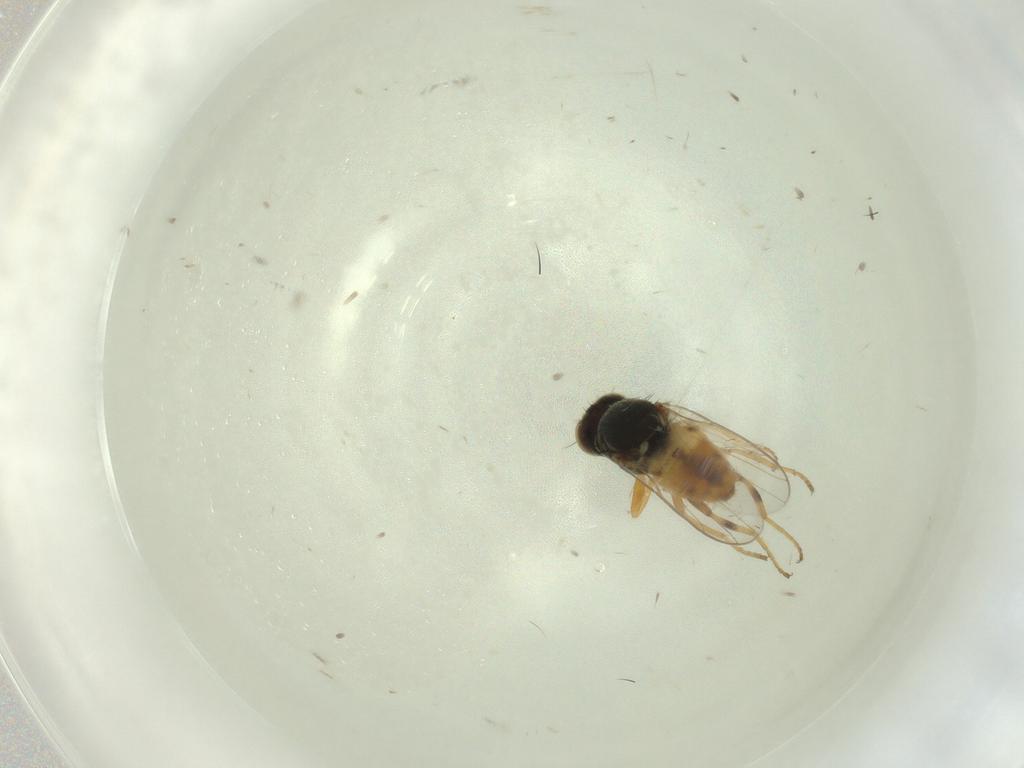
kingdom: Animalia
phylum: Arthropoda
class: Insecta
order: Diptera
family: Chloropidae
